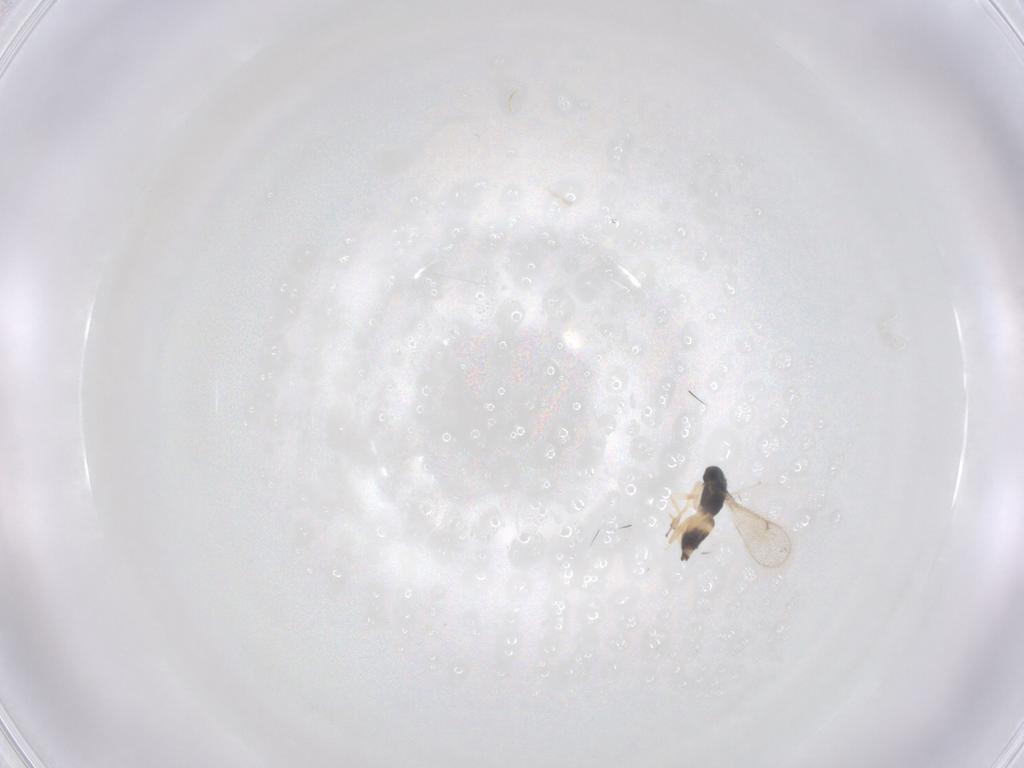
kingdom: Animalia
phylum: Arthropoda
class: Insecta
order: Hymenoptera
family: Eulophidae
